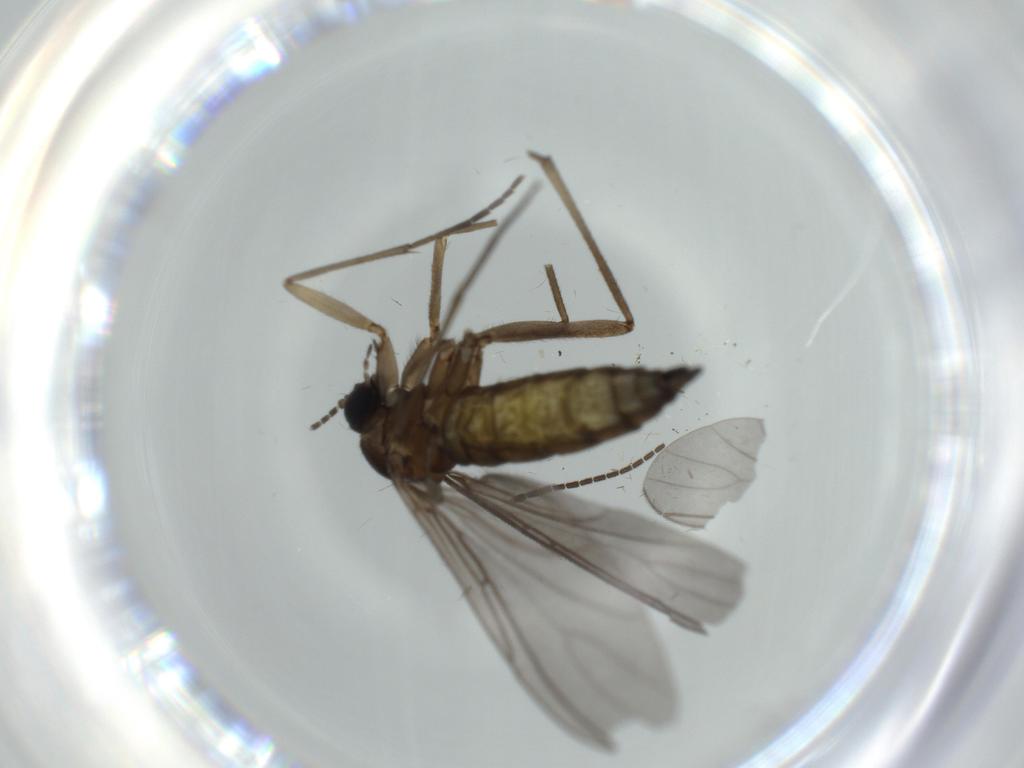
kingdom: Animalia
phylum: Arthropoda
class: Insecta
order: Diptera
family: Sciaridae
